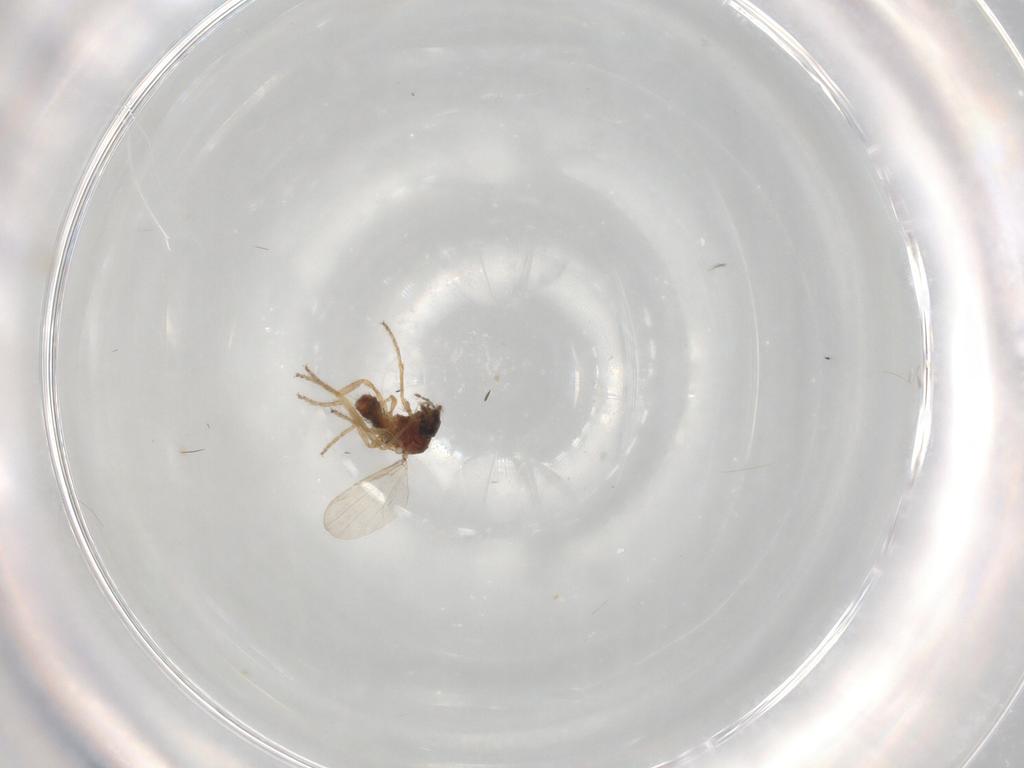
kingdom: Animalia
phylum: Arthropoda
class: Insecta
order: Diptera
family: Ceratopogonidae
